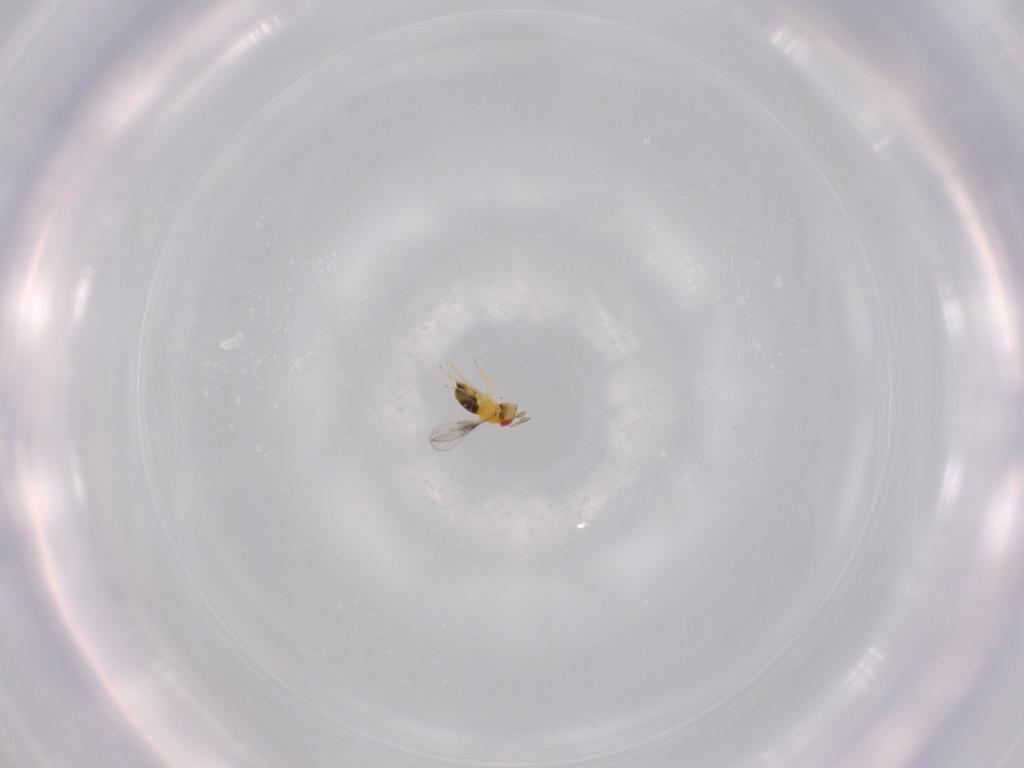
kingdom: Animalia
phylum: Arthropoda
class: Insecta
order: Hymenoptera
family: Trichogrammatidae
